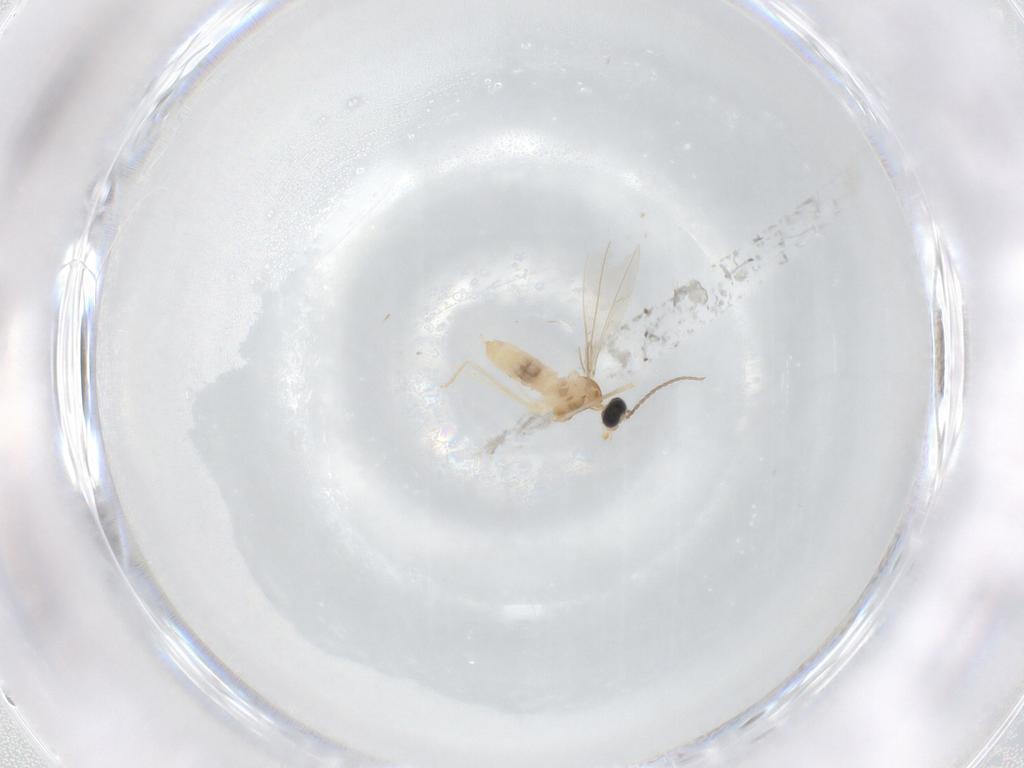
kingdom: Animalia
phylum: Arthropoda
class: Insecta
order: Diptera
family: Cecidomyiidae
